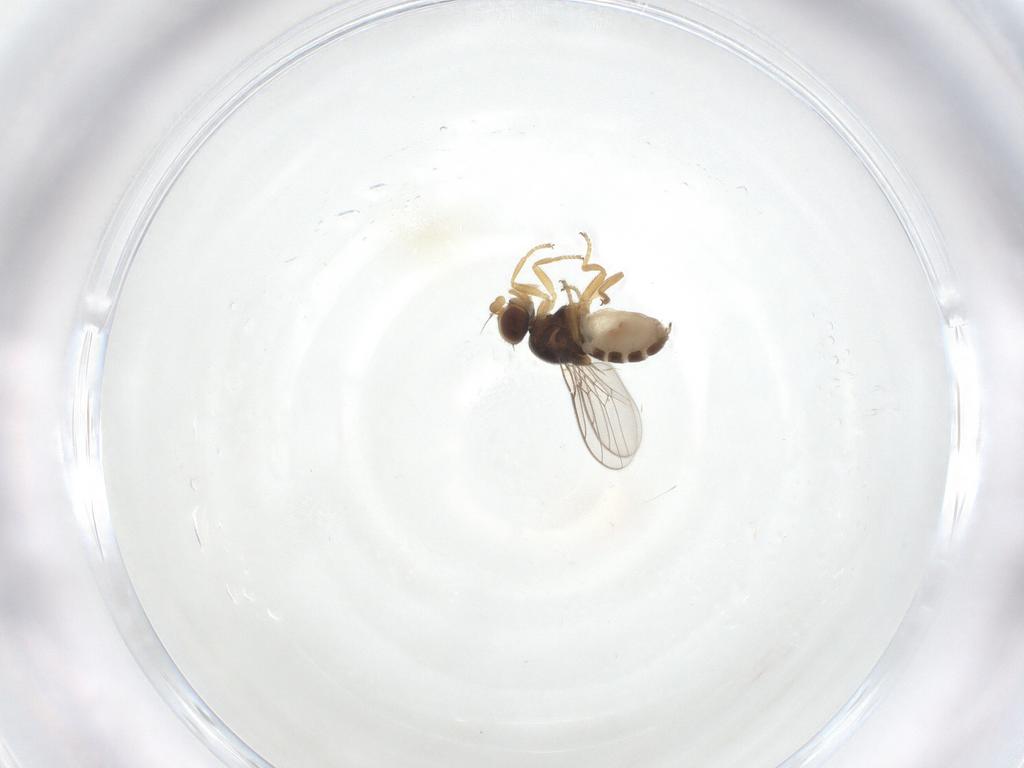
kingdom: Animalia
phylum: Arthropoda
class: Insecta
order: Diptera
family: Chloropidae
